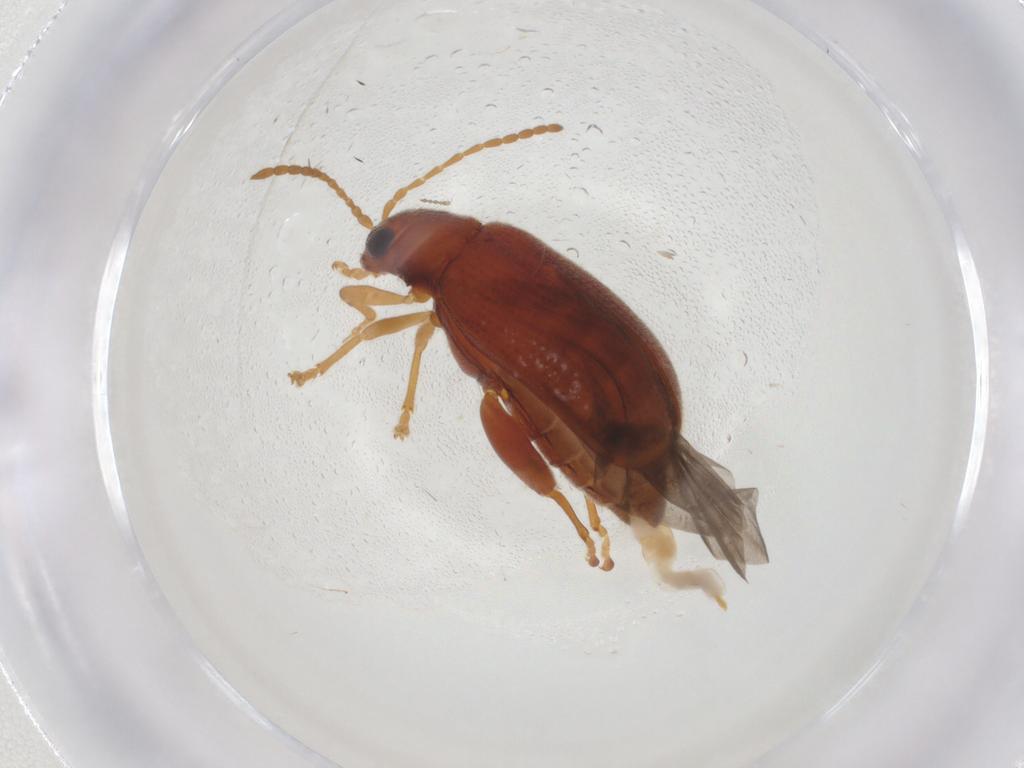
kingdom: Animalia
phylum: Arthropoda
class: Insecta
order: Coleoptera
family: Chrysomelidae
